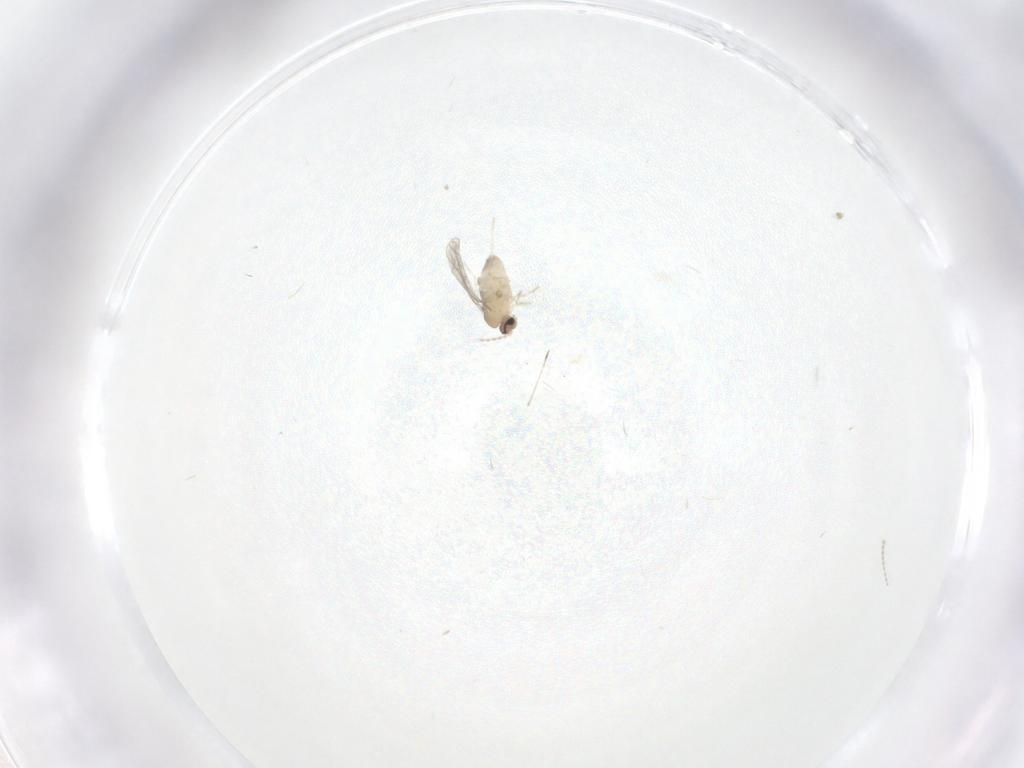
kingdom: Animalia
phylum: Arthropoda
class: Insecta
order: Diptera
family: Cecidomyiidae
